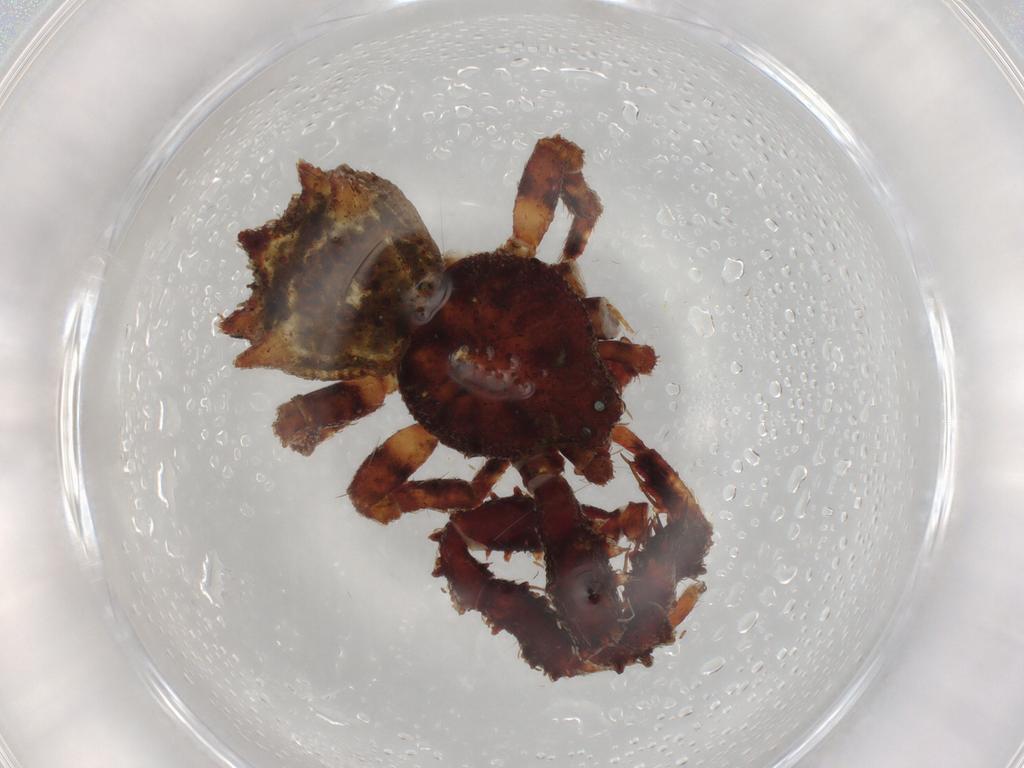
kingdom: Animalia
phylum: Arthropoda
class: Arachnida
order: Araneae
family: Thomisidae
